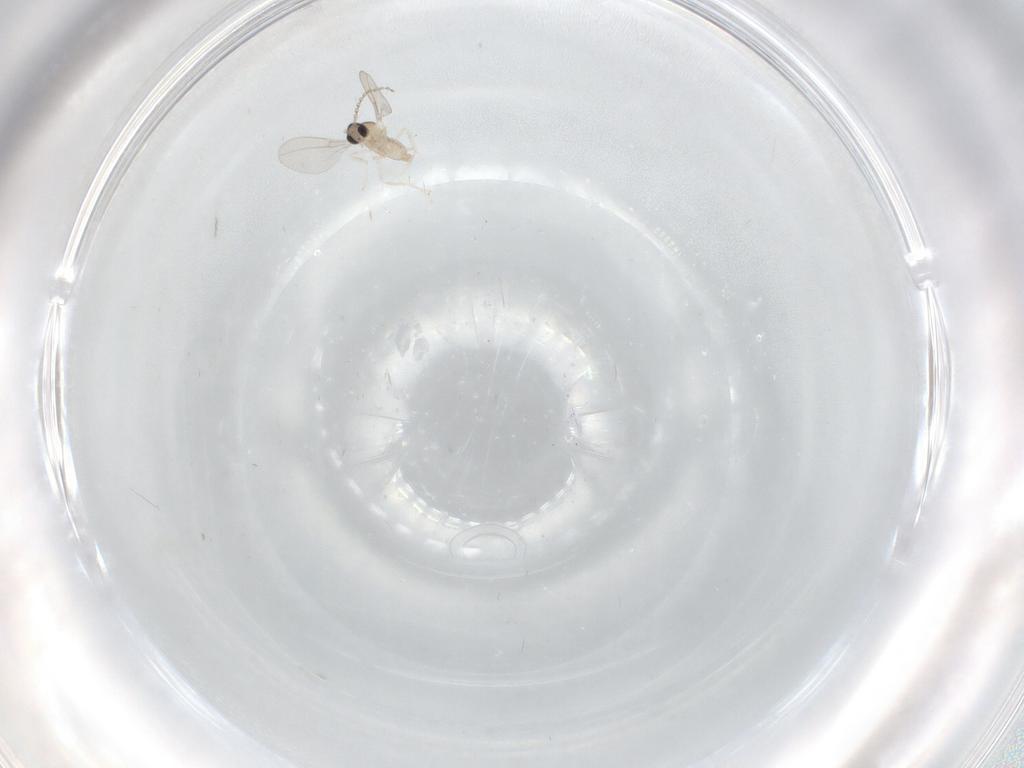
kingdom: Animalia
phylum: Arthropoda
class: Insecta
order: Diptera
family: Cecidomyiidae
